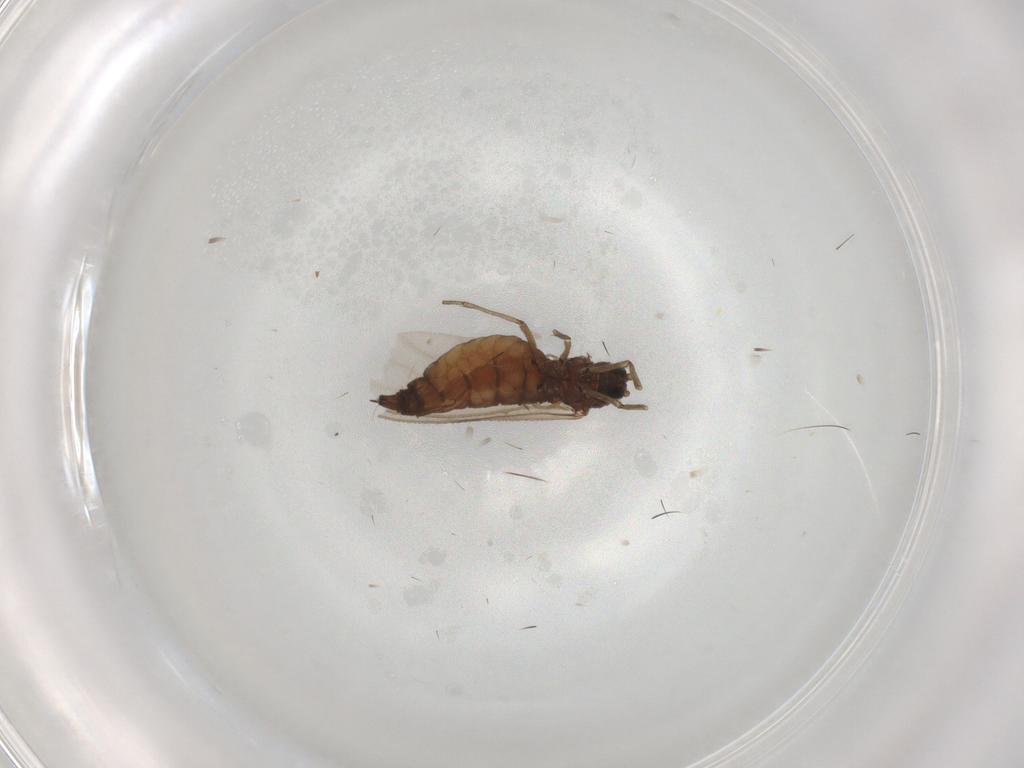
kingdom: Animalia
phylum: Arthropoda
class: Insecta
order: Diptera
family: Sciaridae
